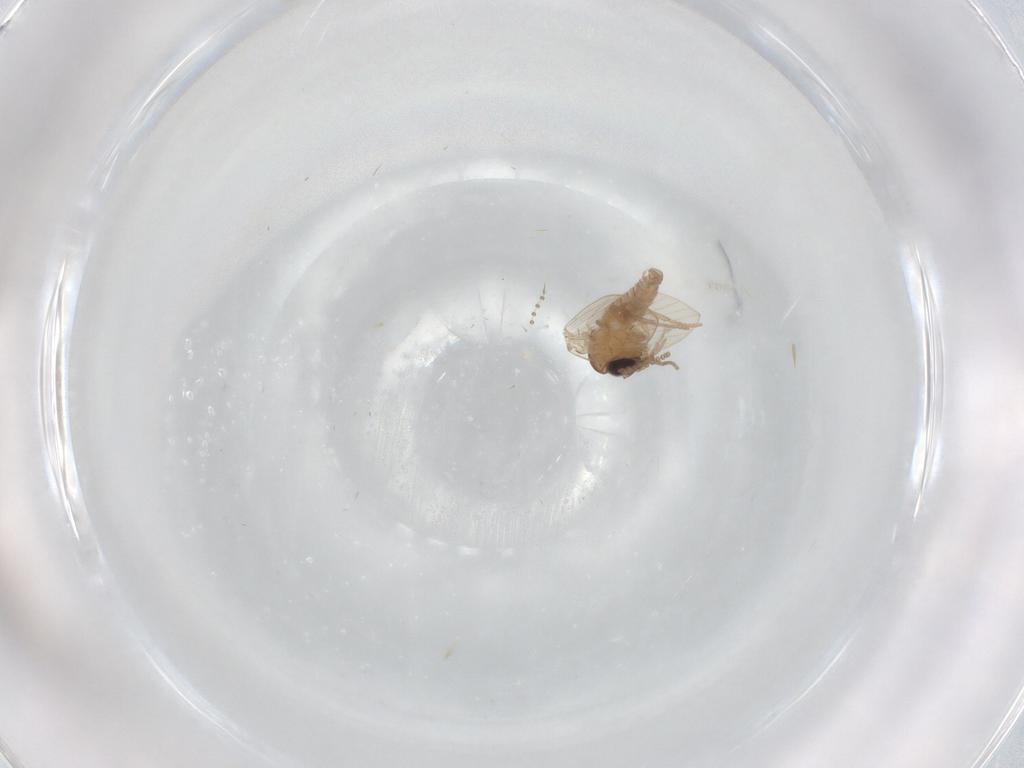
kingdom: Animalia
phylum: Arthropoda
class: Insecta
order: Diptera
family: Psychodidae
